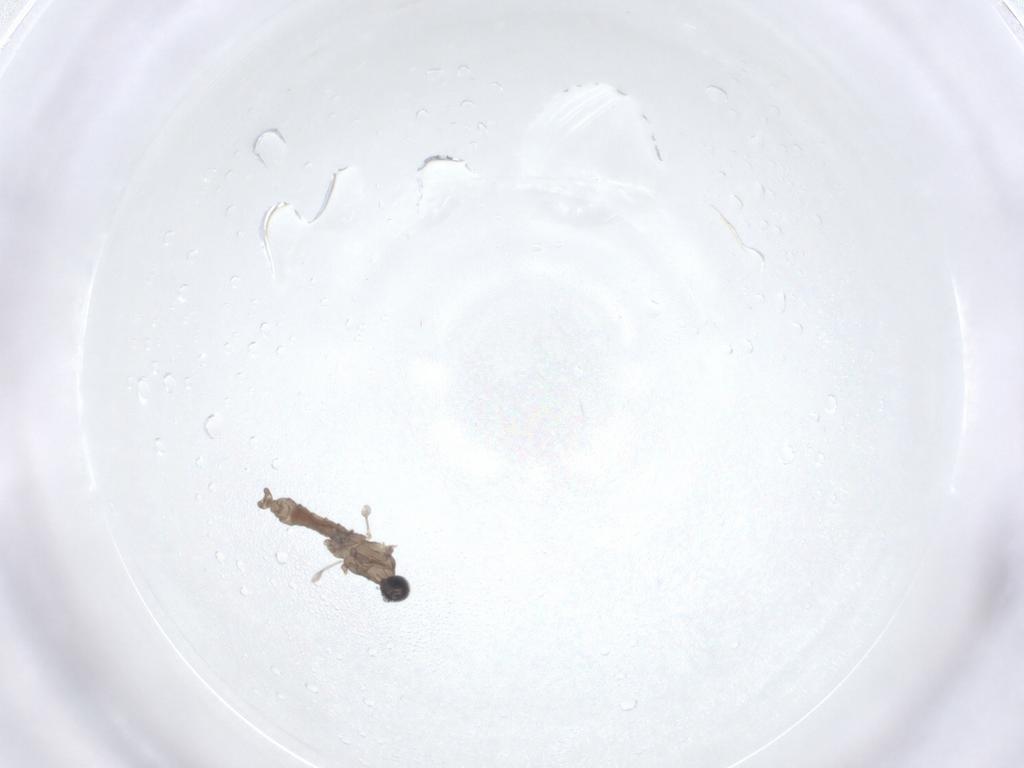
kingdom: Animalia
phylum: Arthropoda
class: Insecta
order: Diptera
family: Cecidomyiidae
